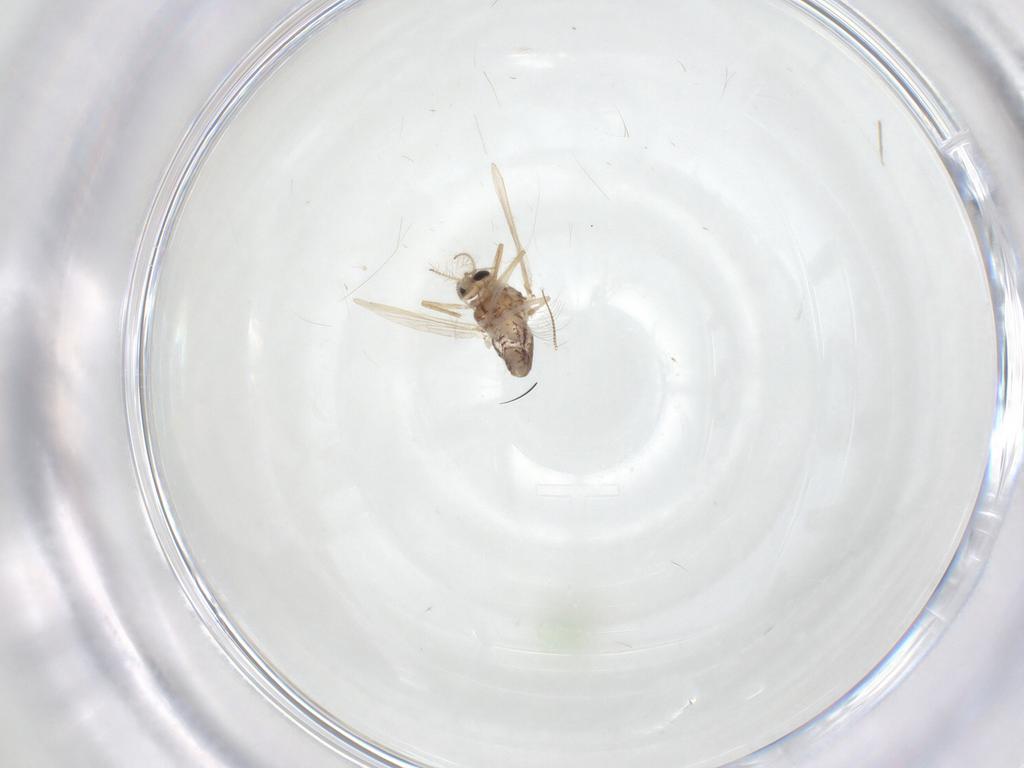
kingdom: Animalia
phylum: Arthropoda
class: Insecta
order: Diptera
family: Chironomidae
